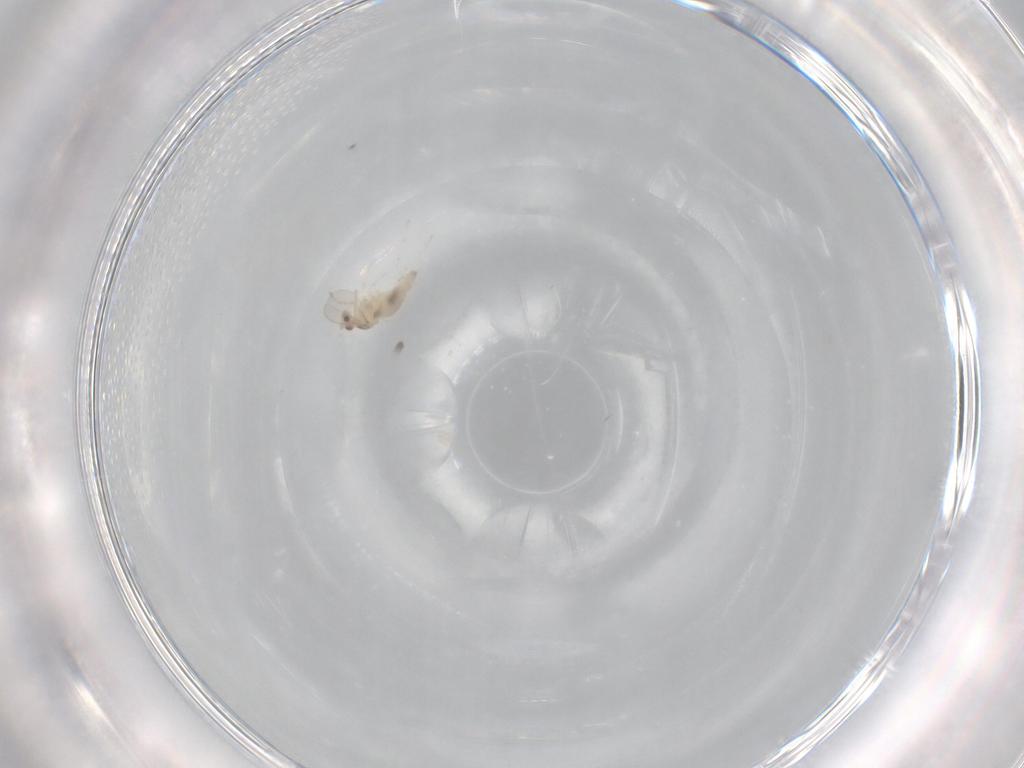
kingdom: Animalia
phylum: Arthropoda
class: Insecta
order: Diptera
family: Cecidomyiidae
